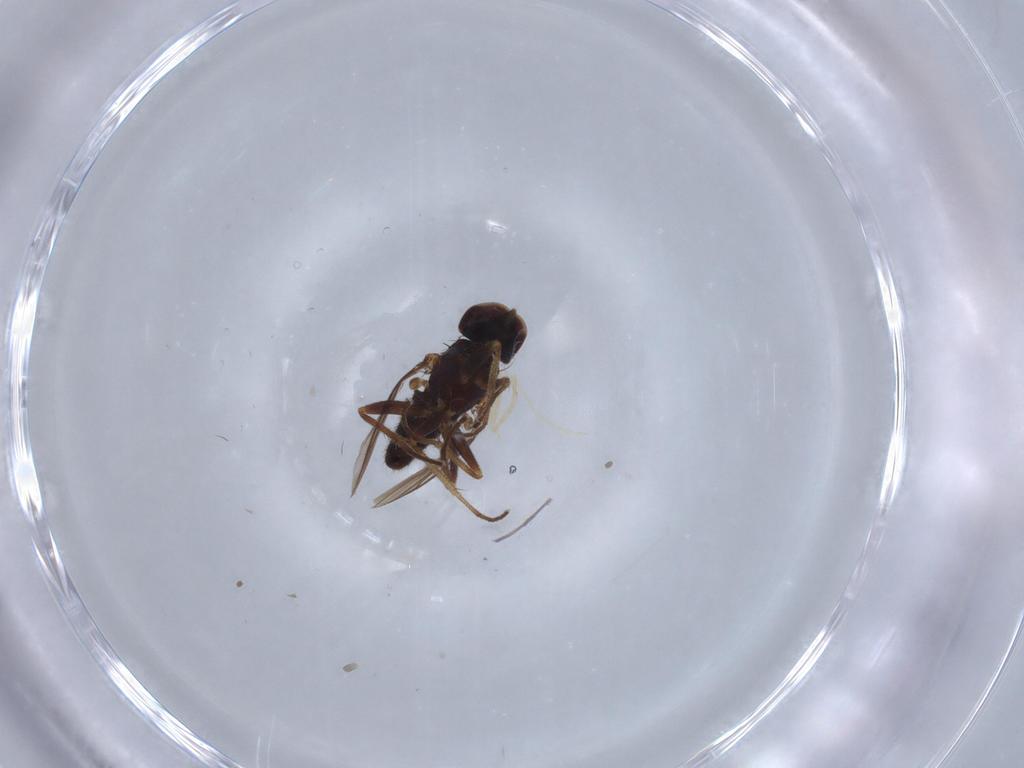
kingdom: Animalia
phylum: Arthropoda
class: Insecta
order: Diptera
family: Dolichopodidae
